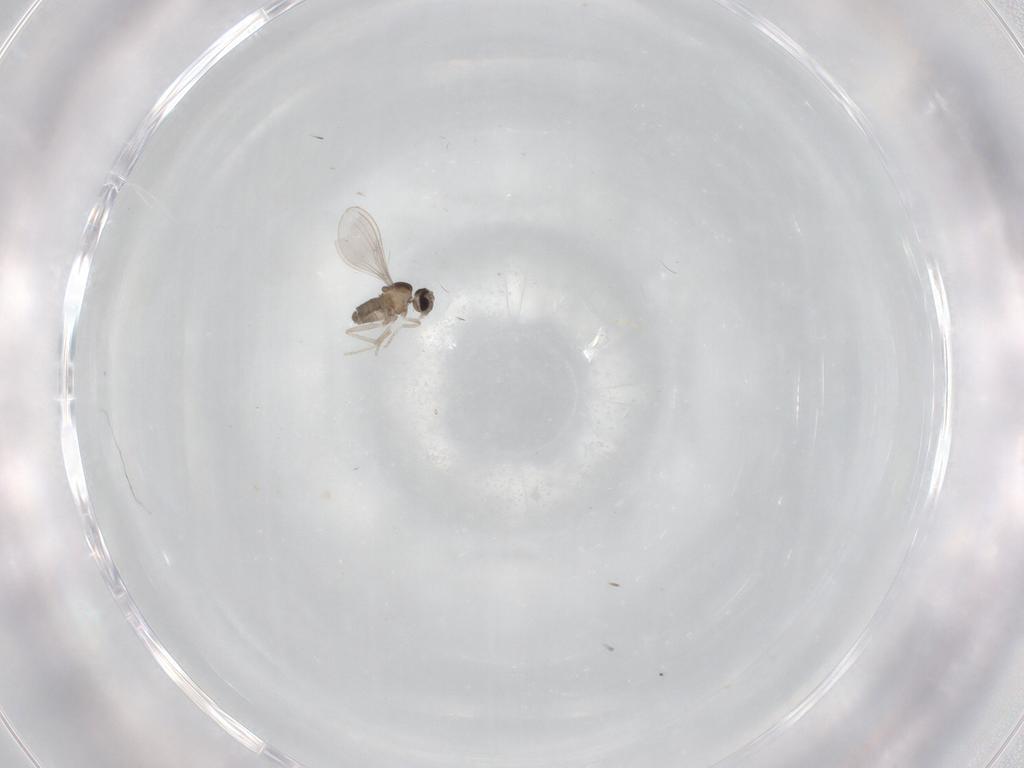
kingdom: Animalia
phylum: Arthropoda
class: Insecta
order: Diptera
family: Cecidomyiidae
